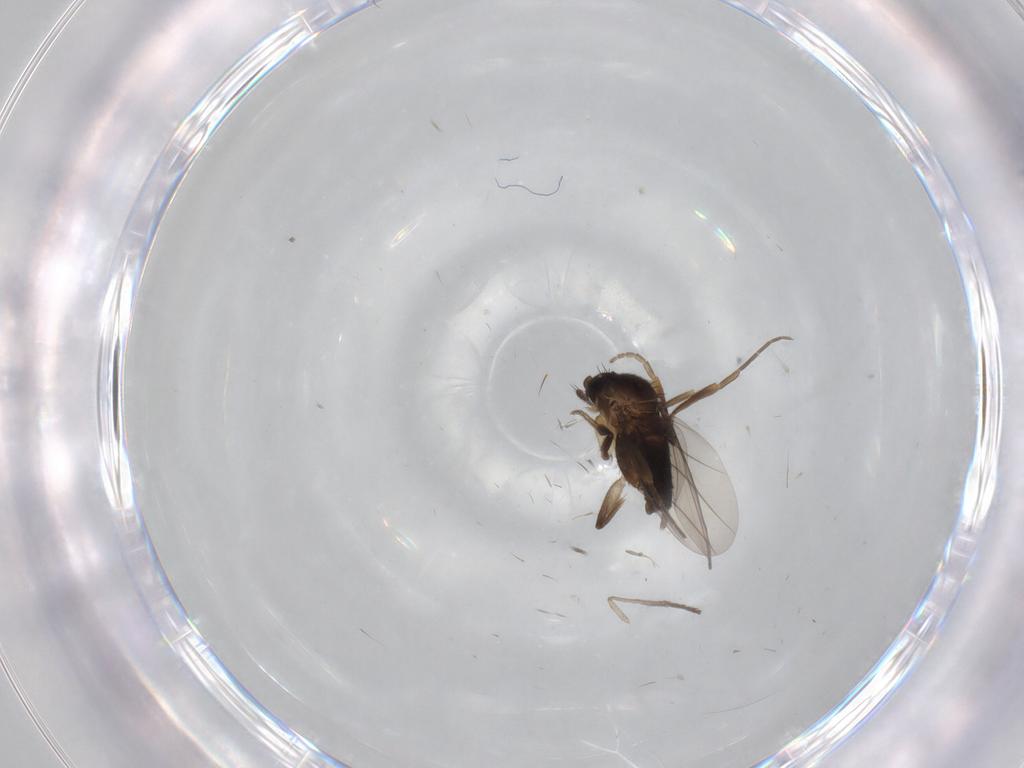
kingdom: Animalia
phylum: Arthropoda
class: Insecta
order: Diptera
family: Phoridae
